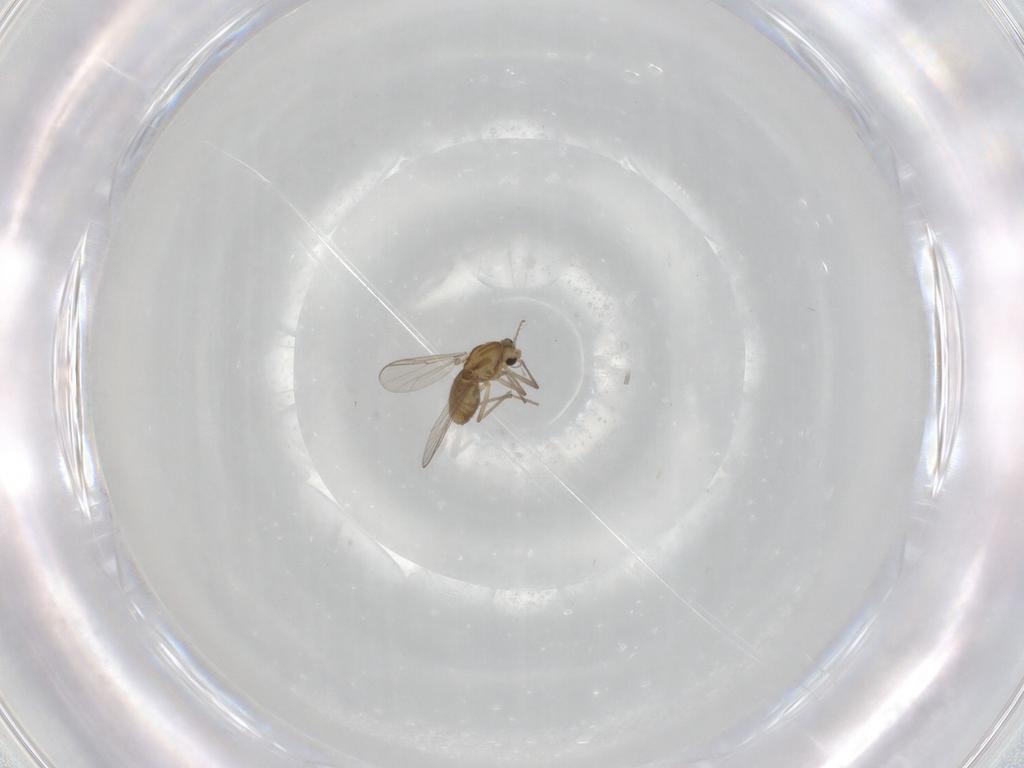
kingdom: Animalia
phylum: Arthropoda
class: Insecta
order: Diptera
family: Chironomidae
